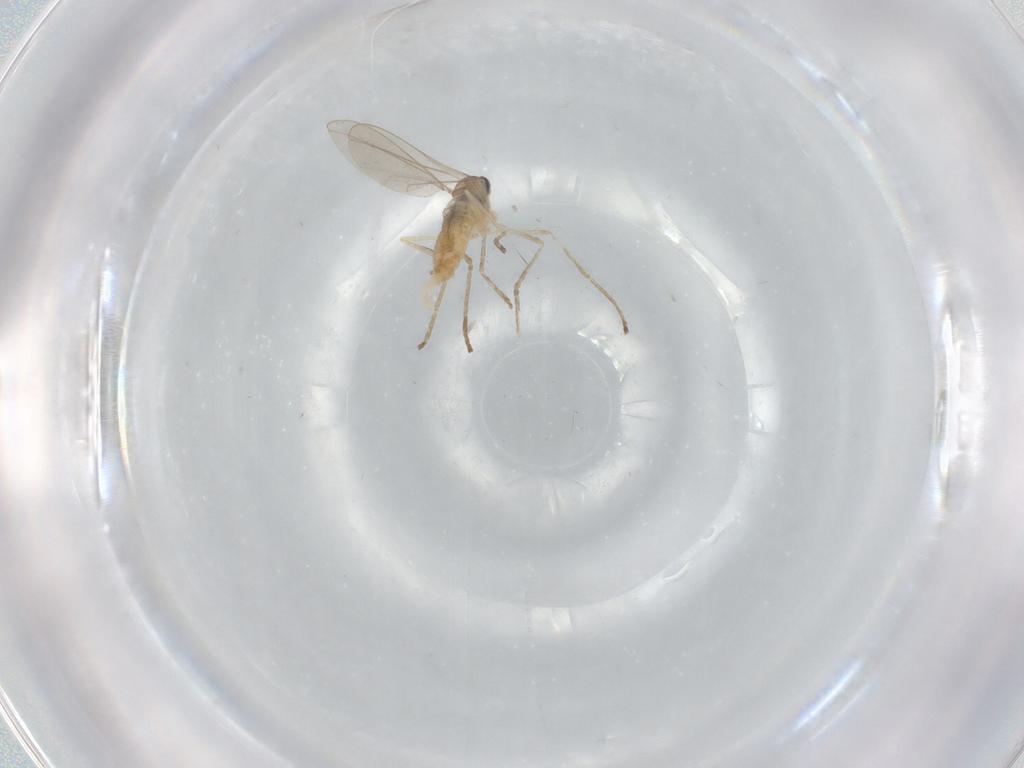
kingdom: Animalia
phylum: Arthropoda
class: Insecta
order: Diptera
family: Cecidomyiidae
